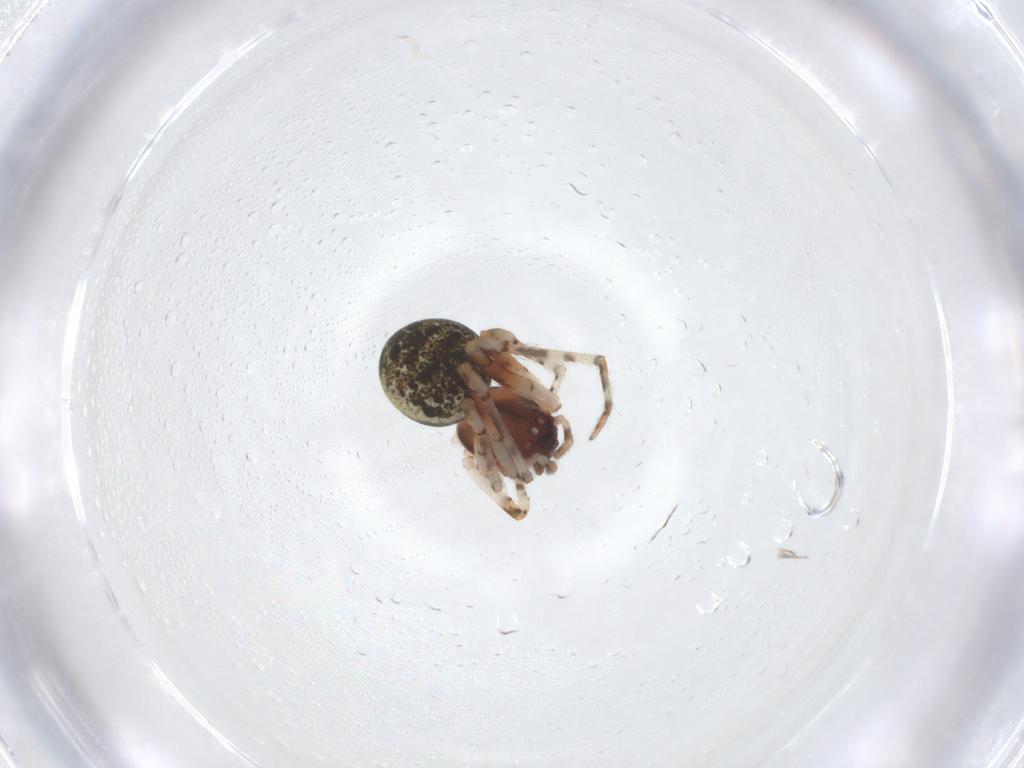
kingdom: Animalia
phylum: Arthropoda
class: Arachnida
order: Araneae
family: Theridiidae
